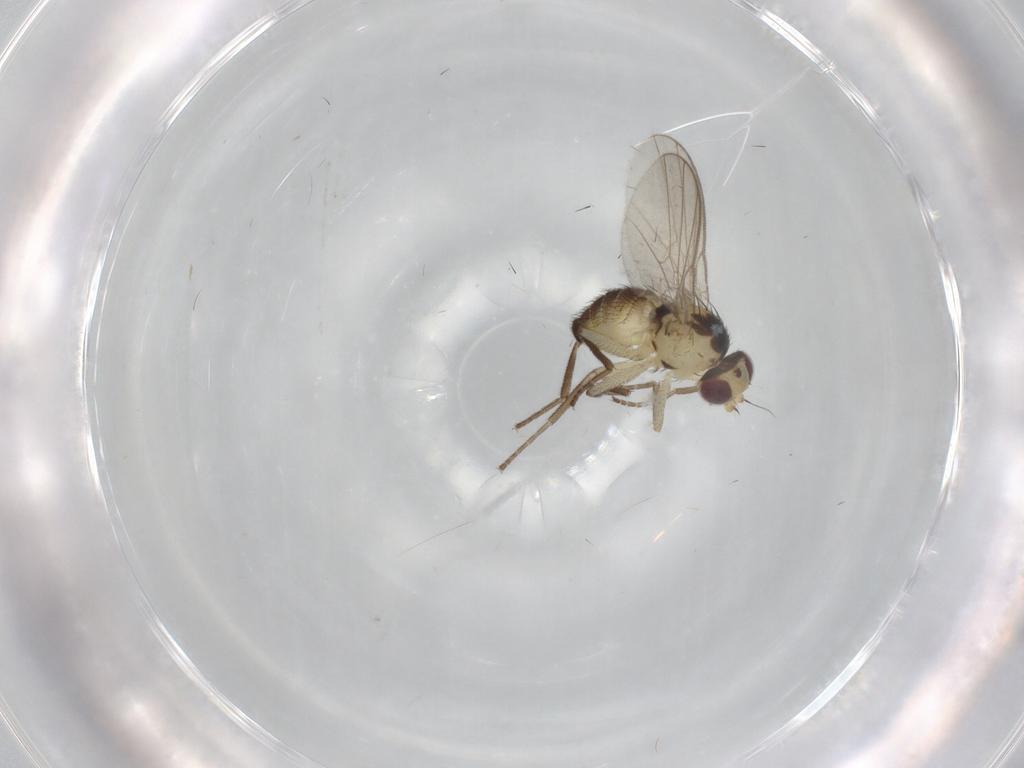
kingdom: Animalia
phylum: Arthropoda
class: Insecta
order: Diptera
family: Agromyzidae
